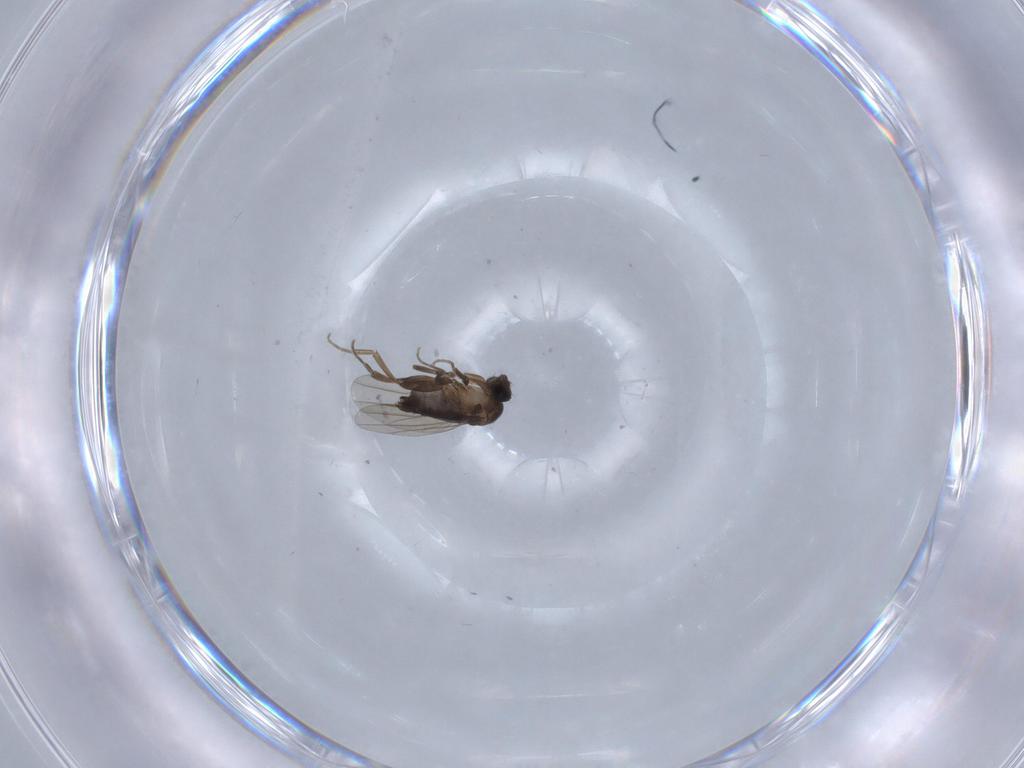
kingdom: Animalia
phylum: Arthropoda
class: Insecta
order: Diptera
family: Phoridae
